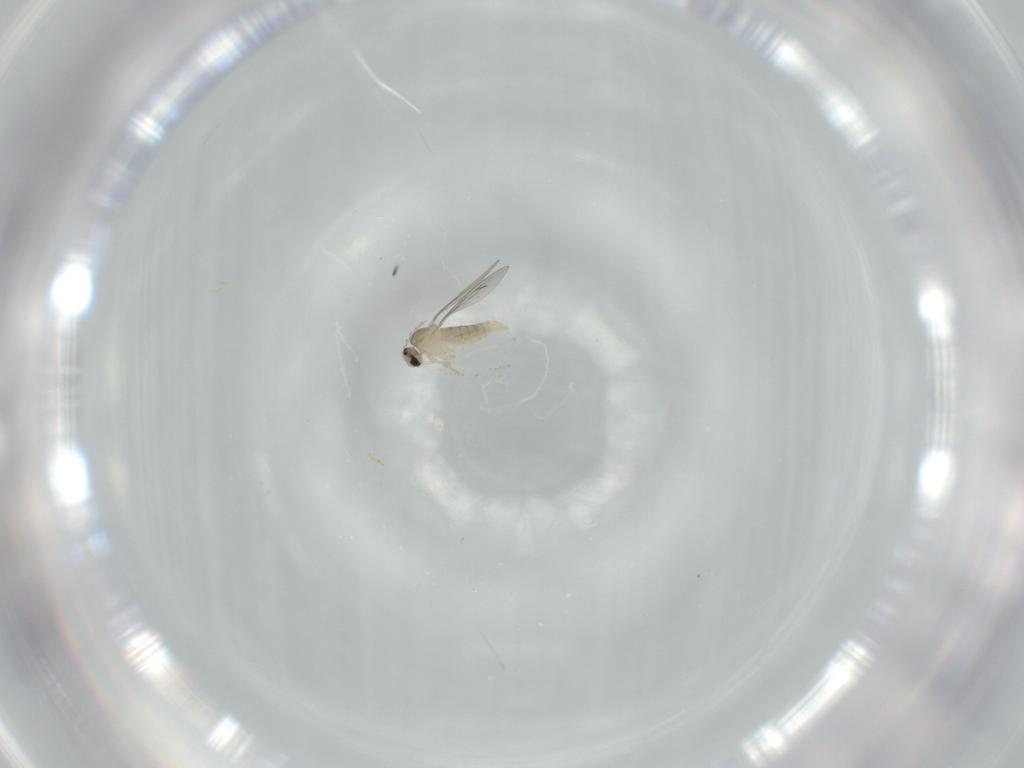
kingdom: Animalia
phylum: Arthropoda
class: Insecta
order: Diptera
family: Cecidomyiidae
